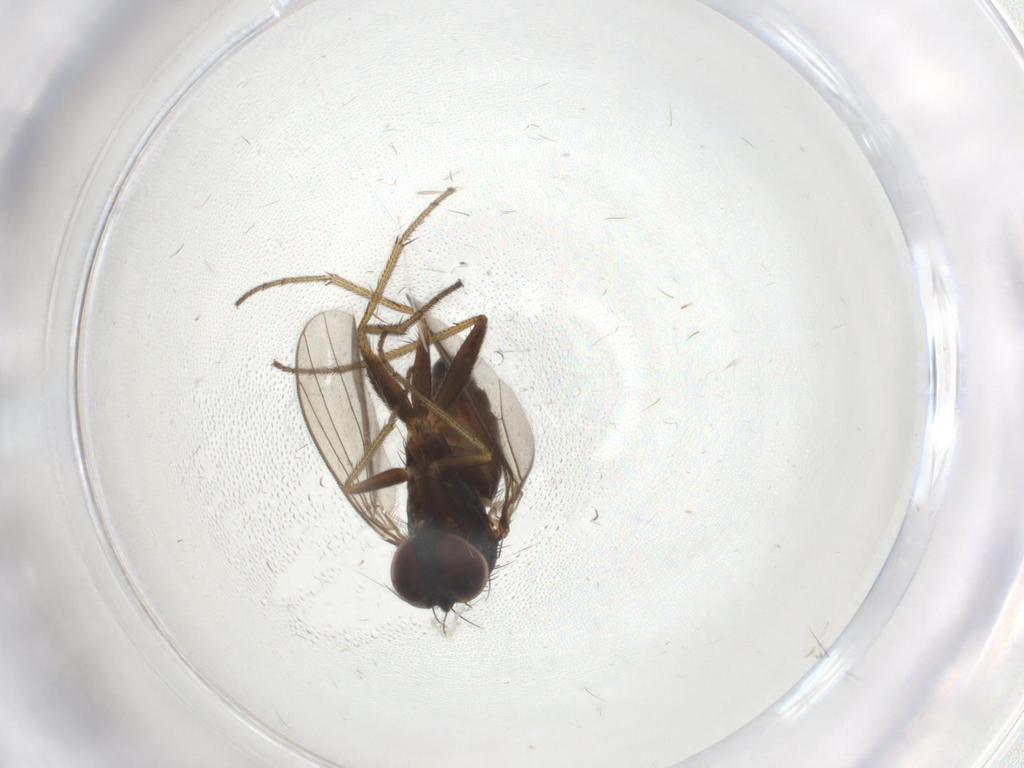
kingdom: Animalia
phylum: Arthropoda
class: Insecta
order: Diptera
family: Dolichopodidae
